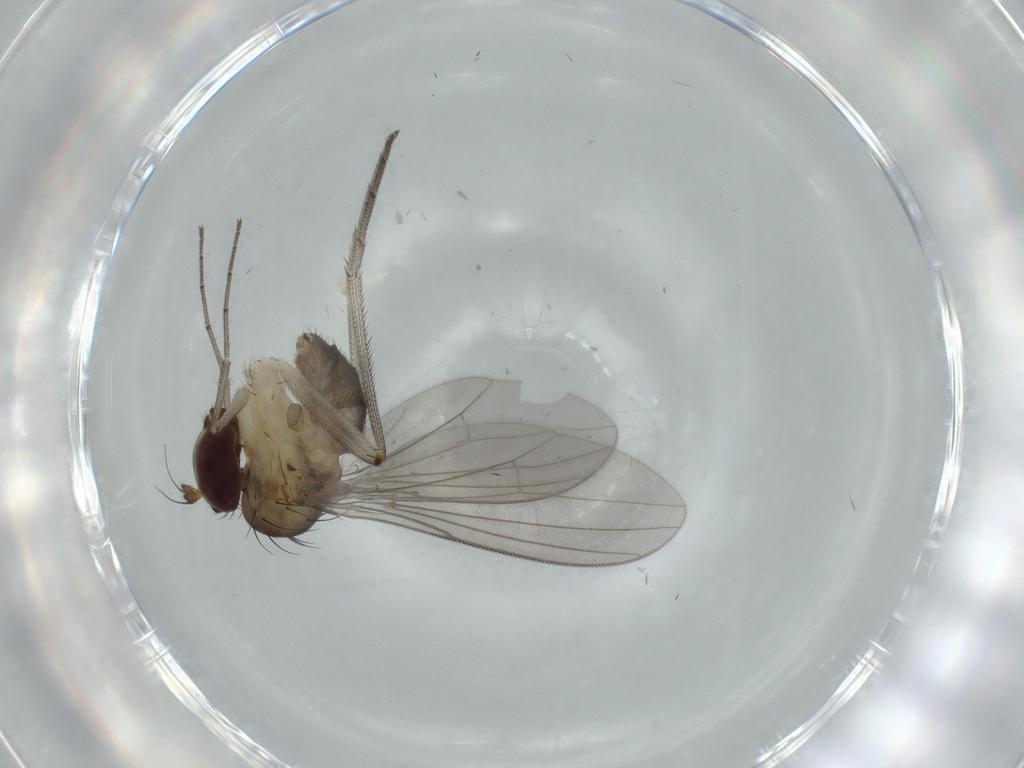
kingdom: Animalia
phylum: Arthropoda
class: Insecta
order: Diptera
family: Dolichopodidae
